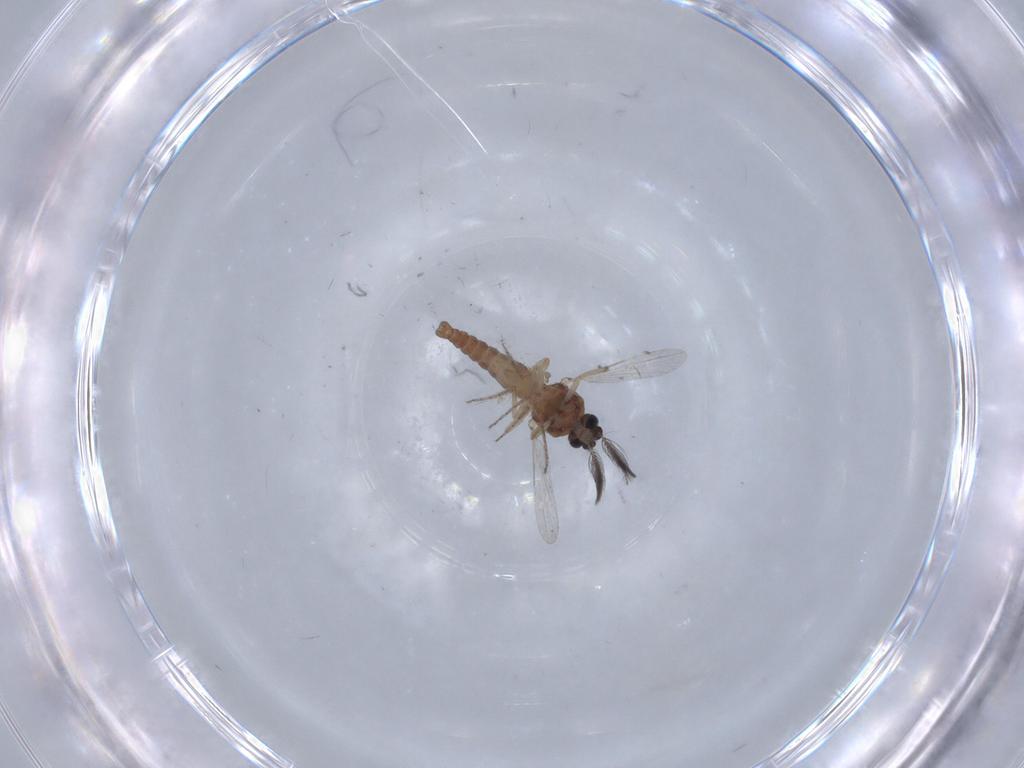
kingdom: Animalia
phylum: Arthropoda
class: Insecta
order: Diptera
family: Ceratopogonidae
